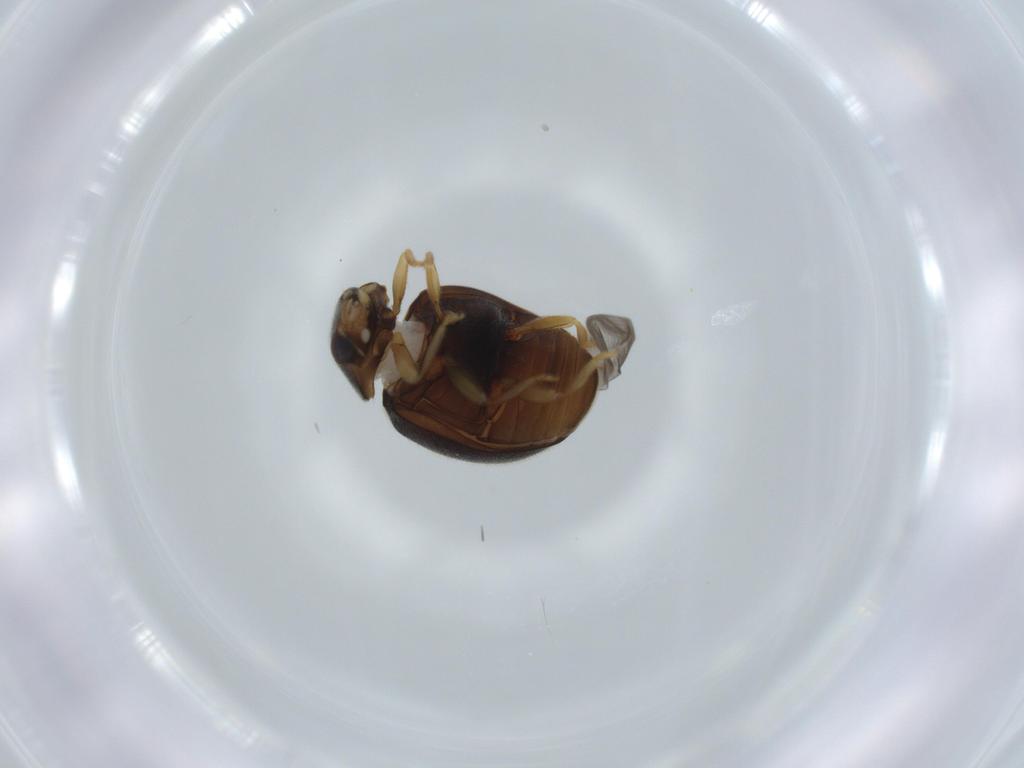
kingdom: Animalia
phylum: Arthropoda
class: Insecta
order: Coleoptera
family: Coccinellidae
